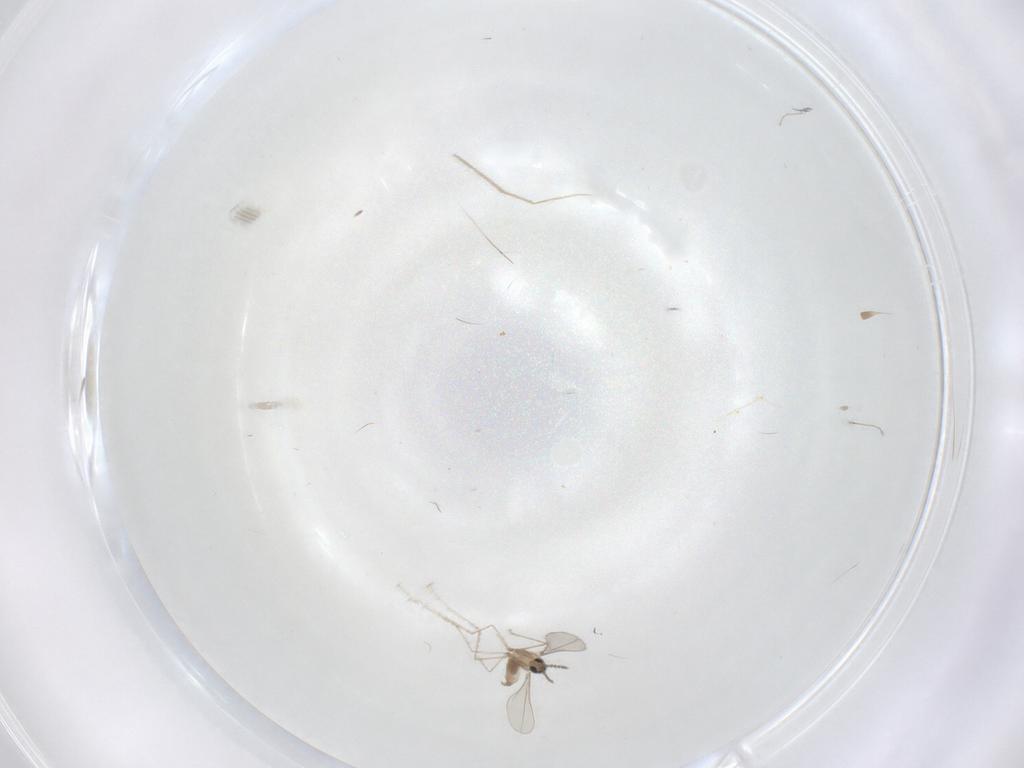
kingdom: Animalia
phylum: Arthropoda
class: Insecta
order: Diptera
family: Cecidomyiidae
